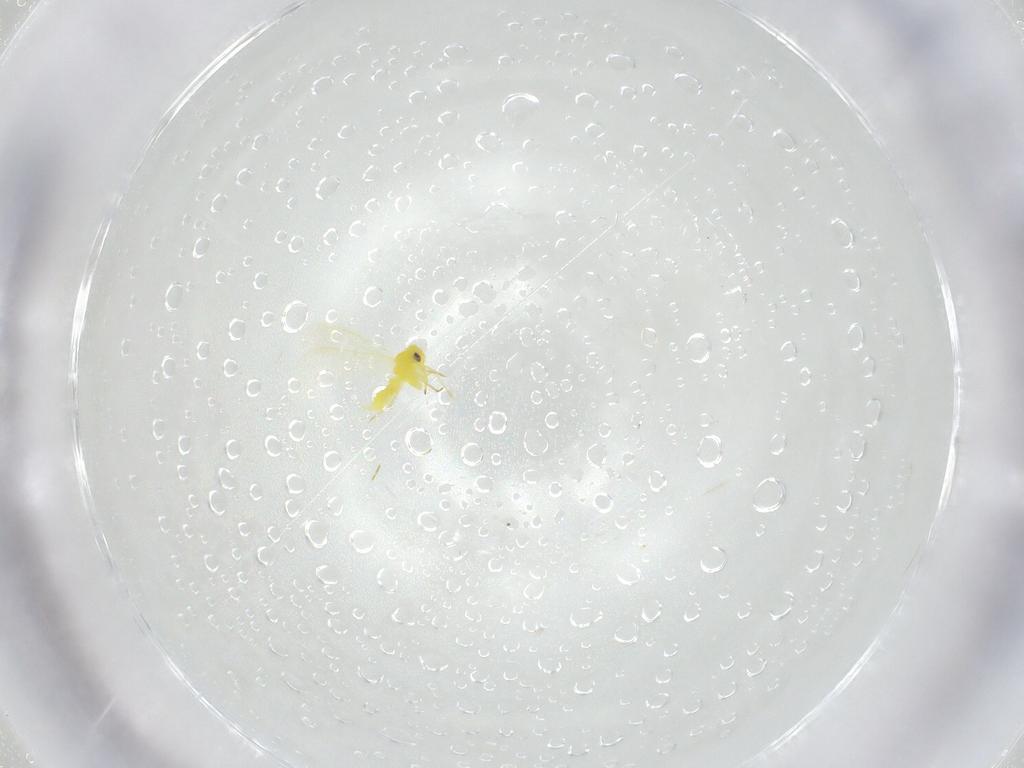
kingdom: Animalia
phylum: Arthropoda
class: Insecta
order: Hemiptera
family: Aleyrodidae
